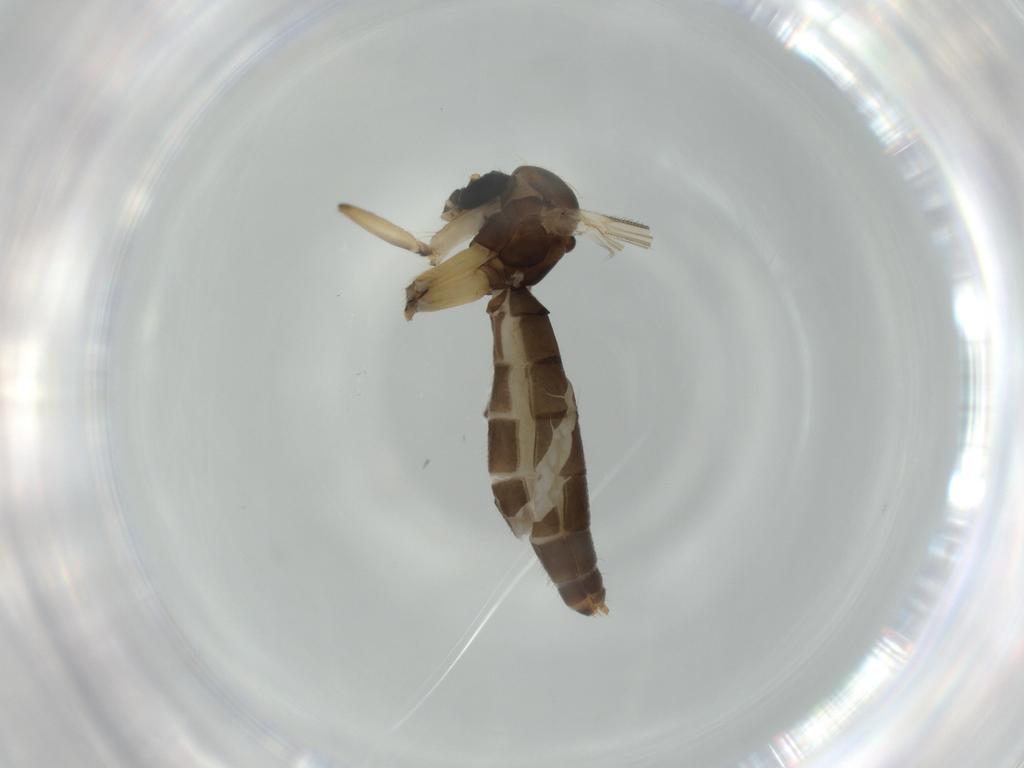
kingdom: Animalia
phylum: Arthropoda
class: Insecta
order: Diptera
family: Chironomidae
